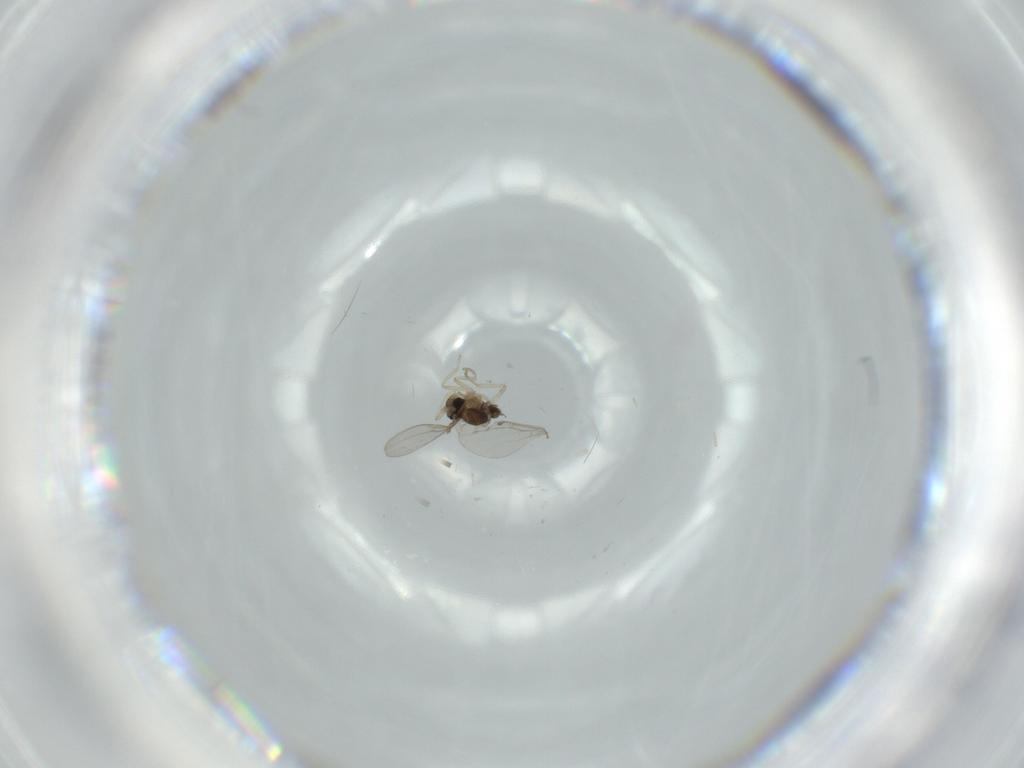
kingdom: Animalia
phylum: Arthropoda
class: Insecta
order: Diptera
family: Cecidomyiidae
